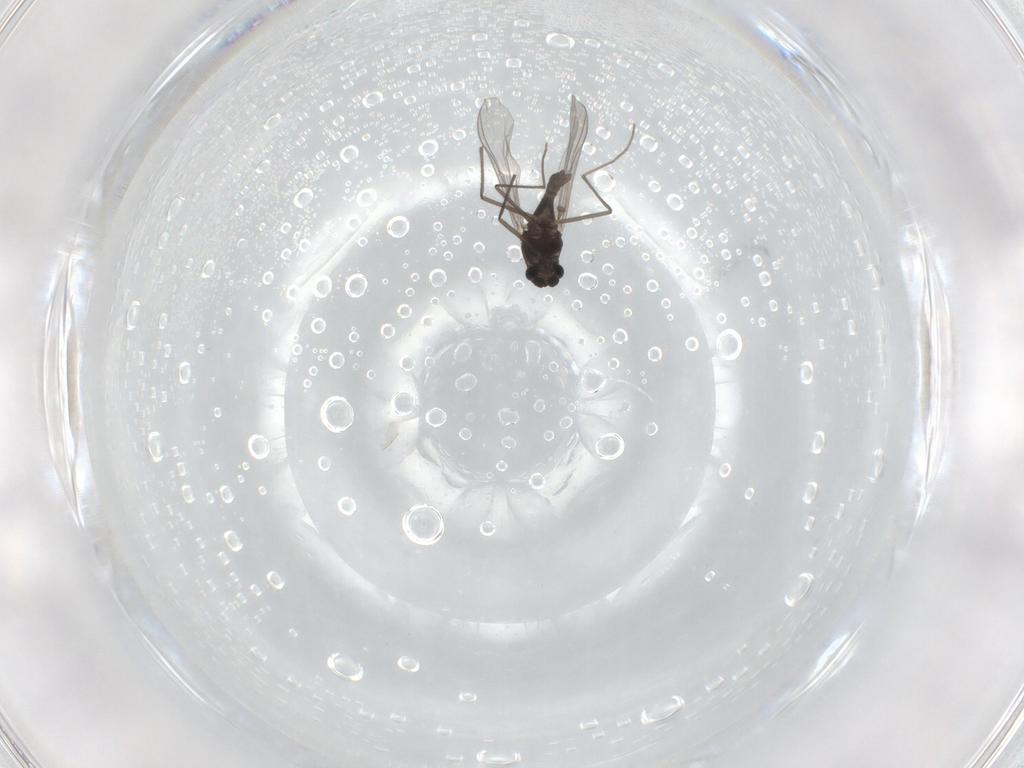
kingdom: Animalia
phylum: Arthropoda
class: Insecta
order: Diptera
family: Chironomidae
